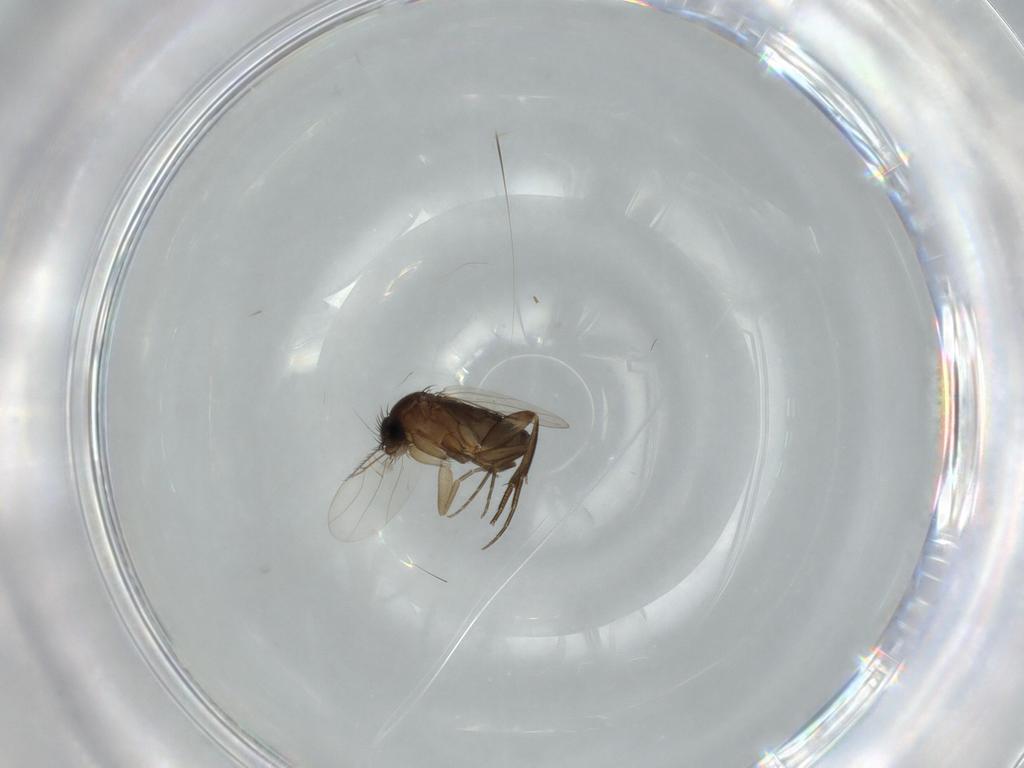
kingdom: Animalia
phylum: Arthropoda
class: Insecta
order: Diptera
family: Phoridae
